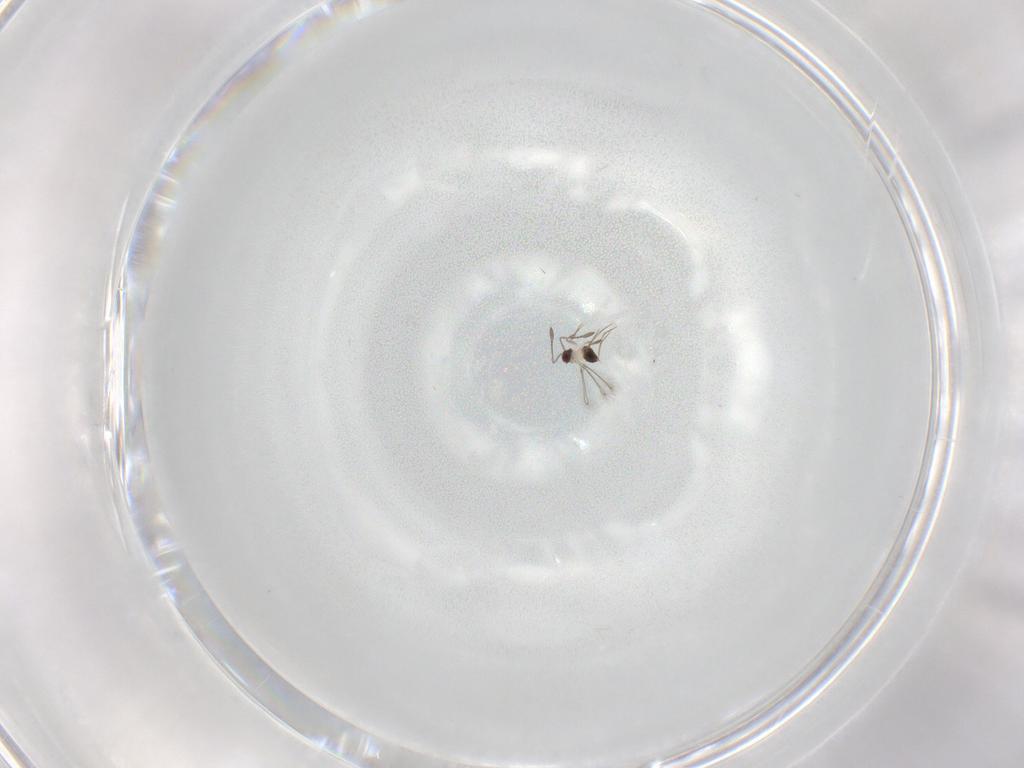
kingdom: Animalia
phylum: Arthropoda
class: Insecta
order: Hymenoptera
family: Mymaridae
